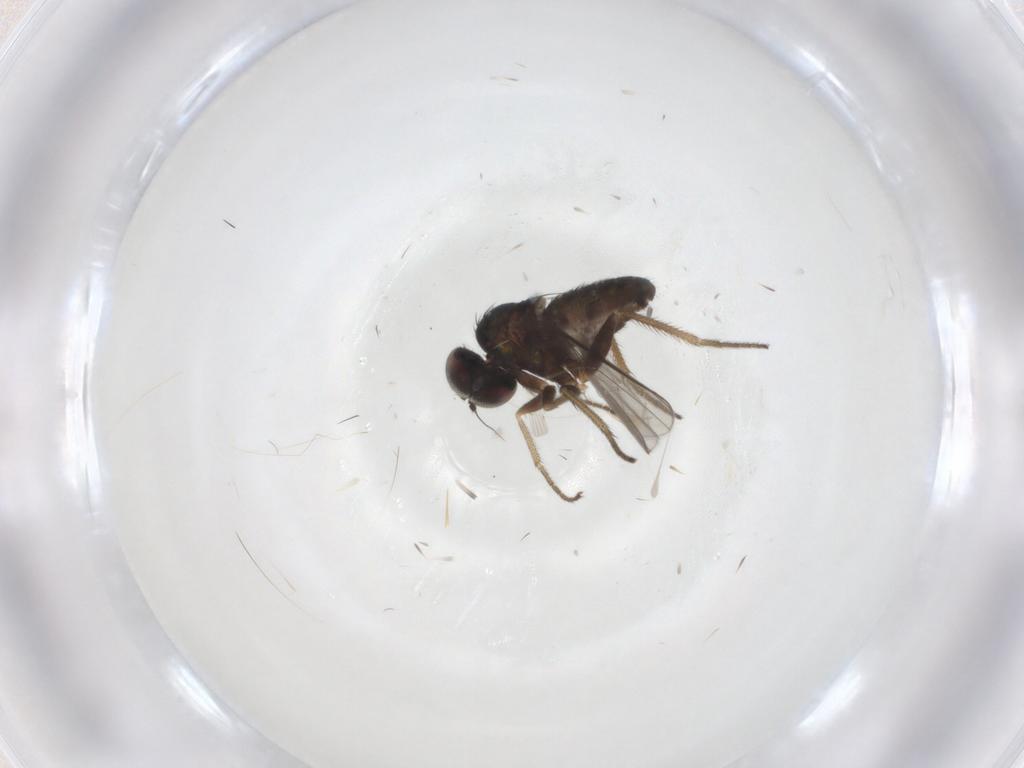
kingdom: Animalia
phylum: Arthropoda
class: Insecta
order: Diptera
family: Dolichopodidae
